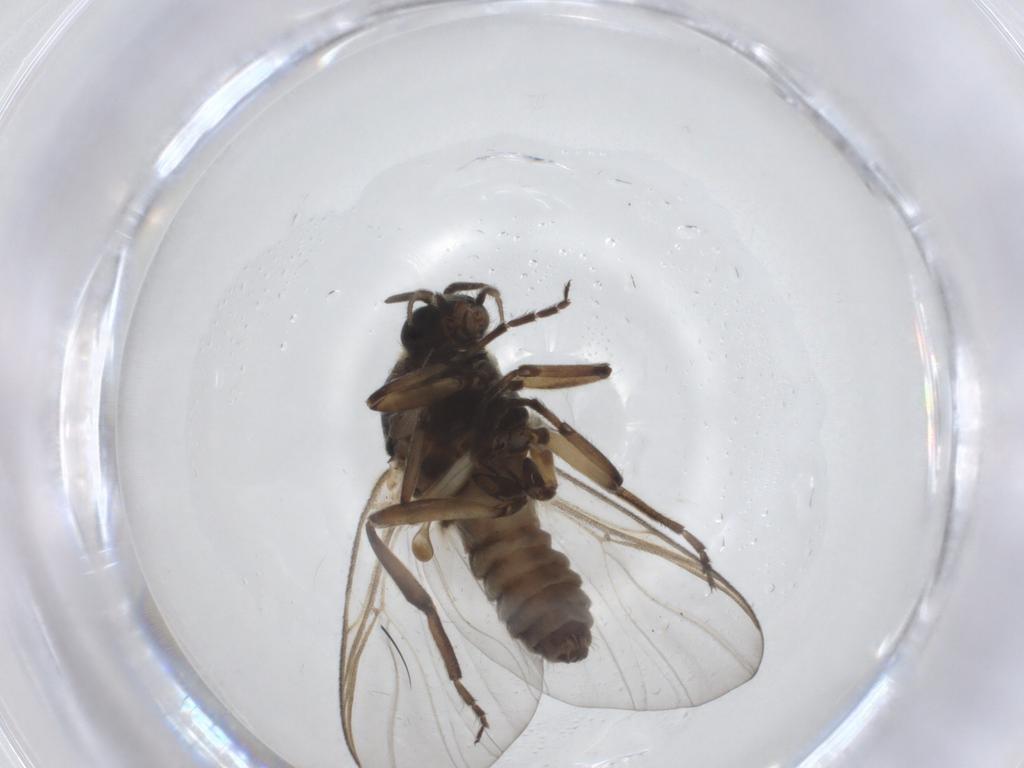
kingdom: Animalia
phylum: Arthropoda
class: Insecta
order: Diptera
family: Simuliidae
